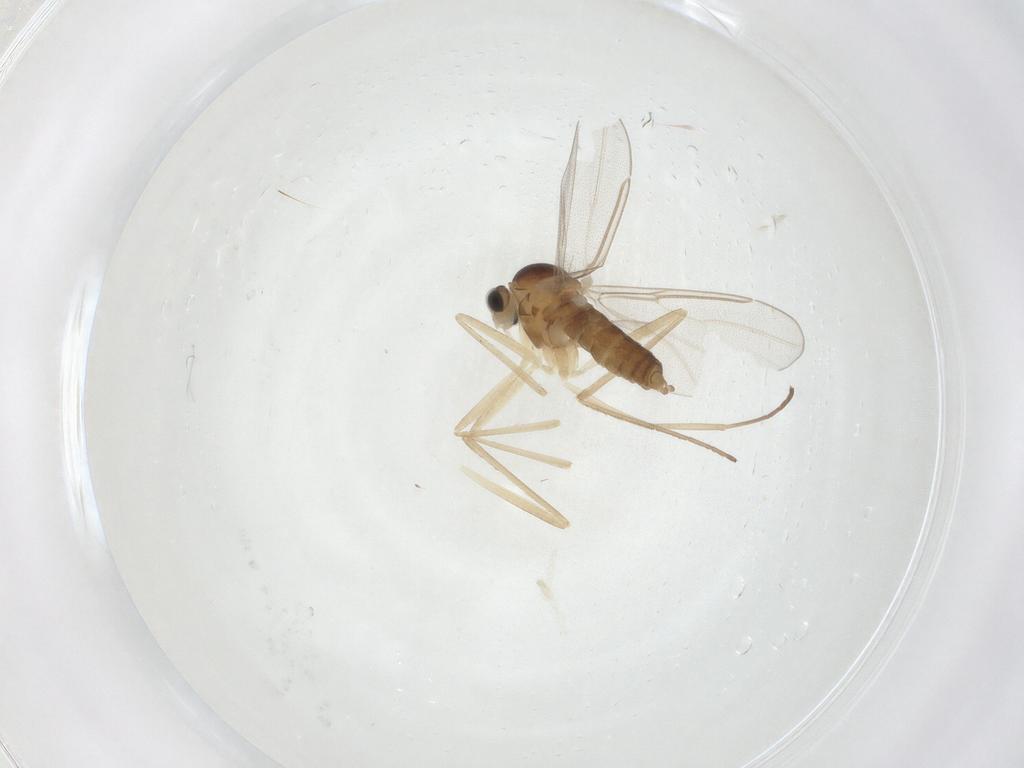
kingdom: Animalia
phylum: Arthropoda
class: Insecta
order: Diptera
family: Cecidomyiidae
